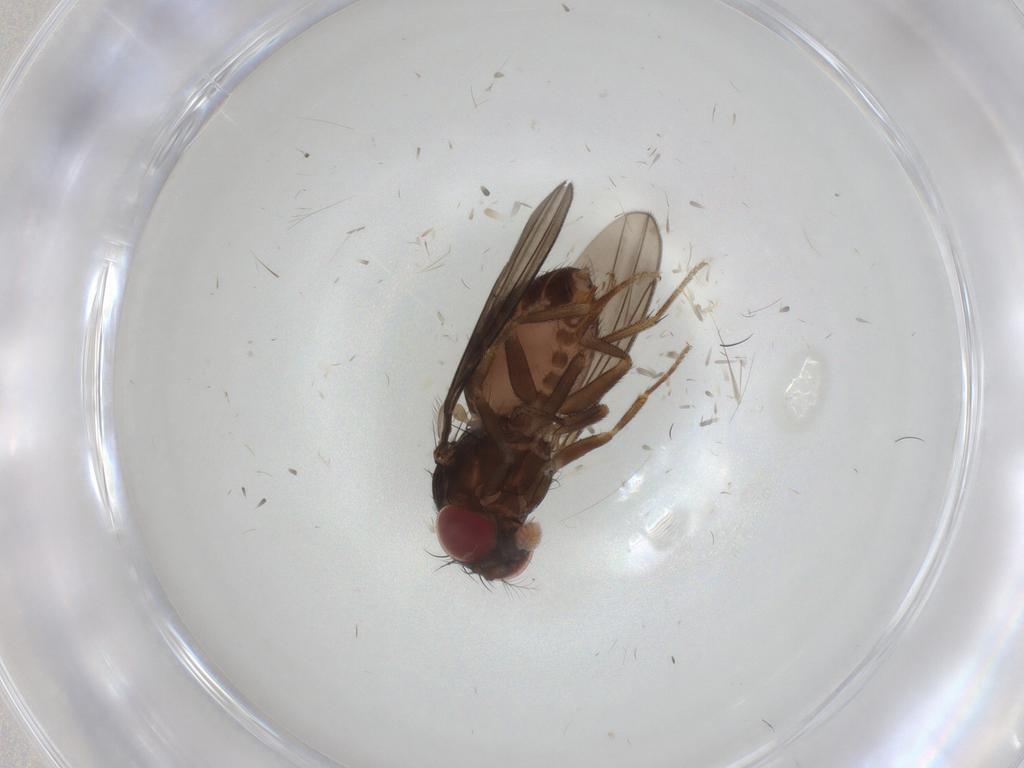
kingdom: Animalia
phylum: Arthropoda
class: Insecta
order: Diptera
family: Drosophilidae
